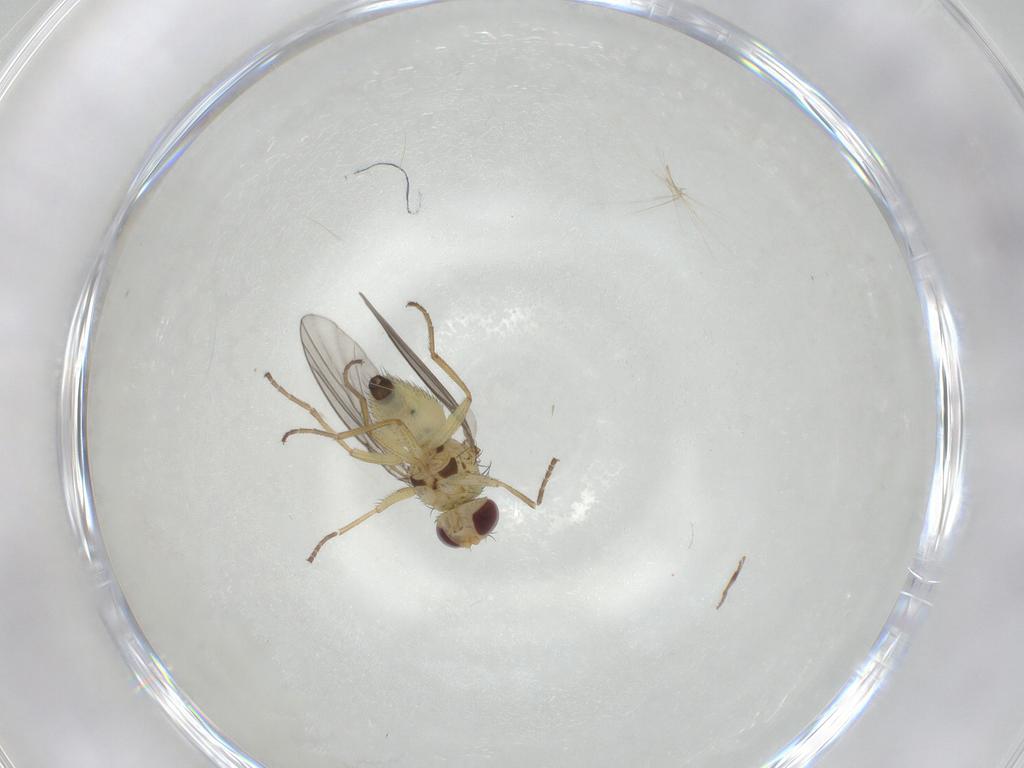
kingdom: Animalia
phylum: Arthropoda
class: Insecta
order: Diptera
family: Agromyzidae
